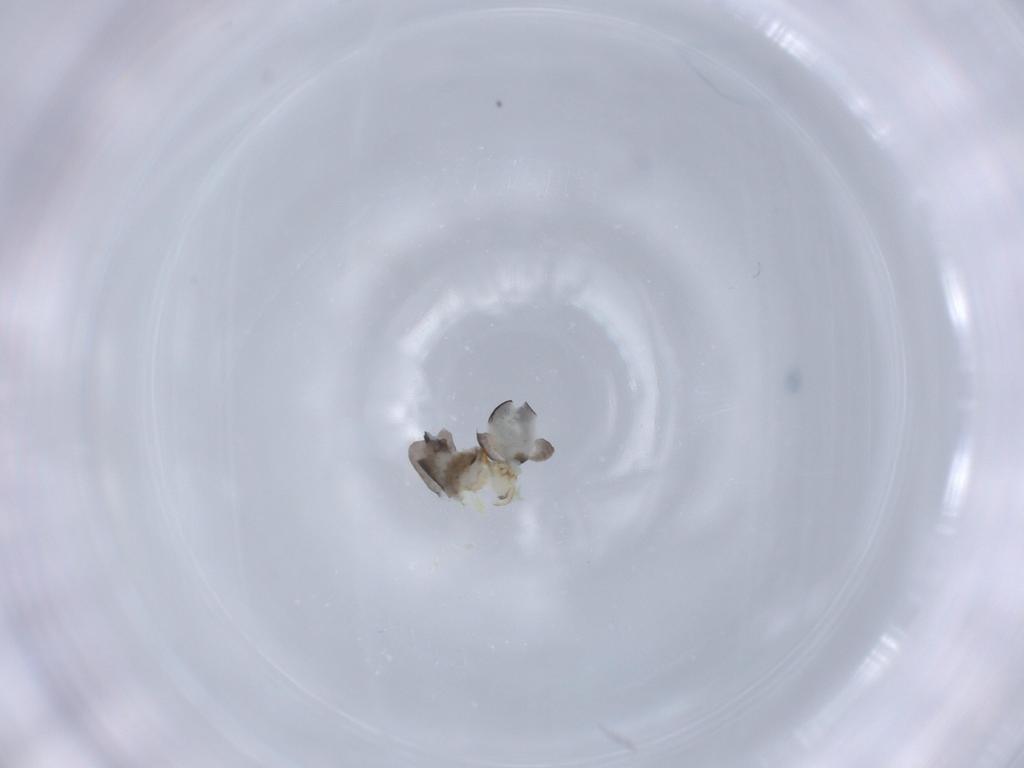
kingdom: Animalia
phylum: Arthropoda
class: Insecta
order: Hymenoptera
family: Dryinidae
